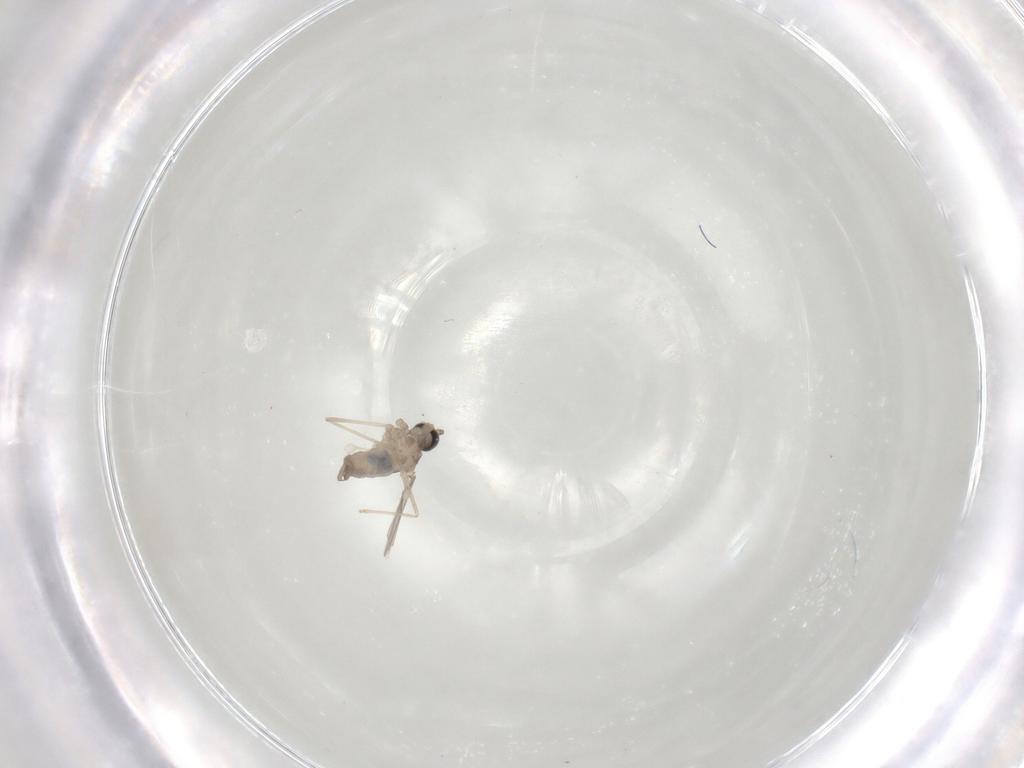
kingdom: Animalia
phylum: Arthropoda
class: Insecta
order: Diptera
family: Cecidomyiidae
